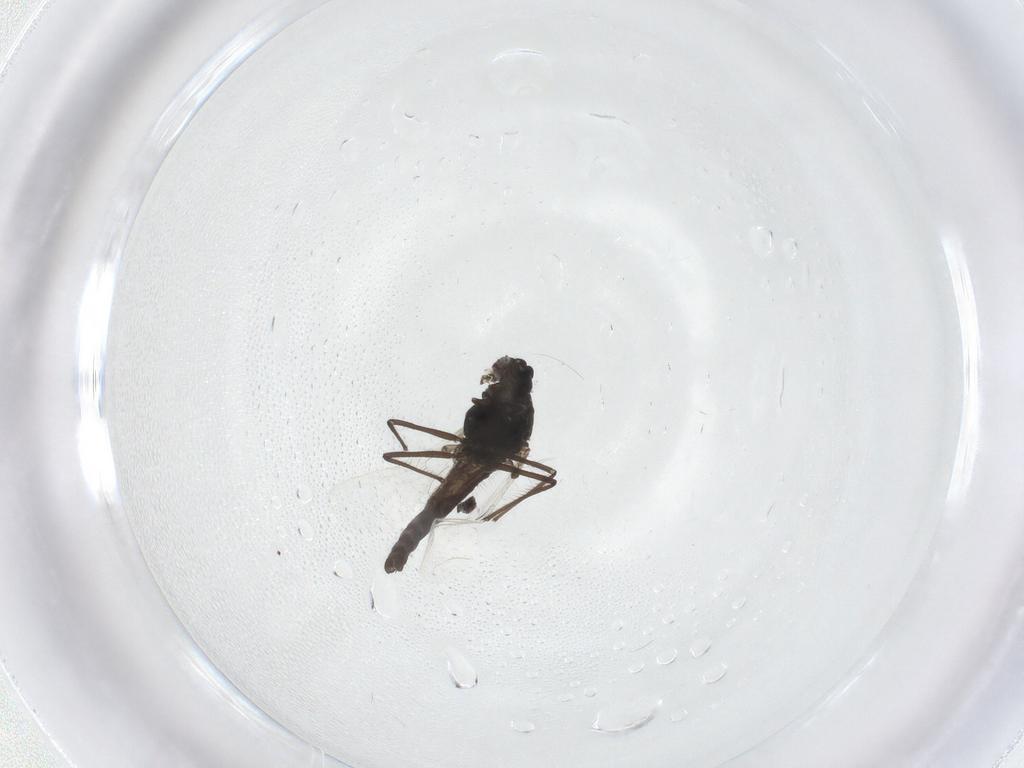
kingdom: Animalia
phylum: Arthropoda
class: Insecta
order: Diptera
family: Chironomidae
